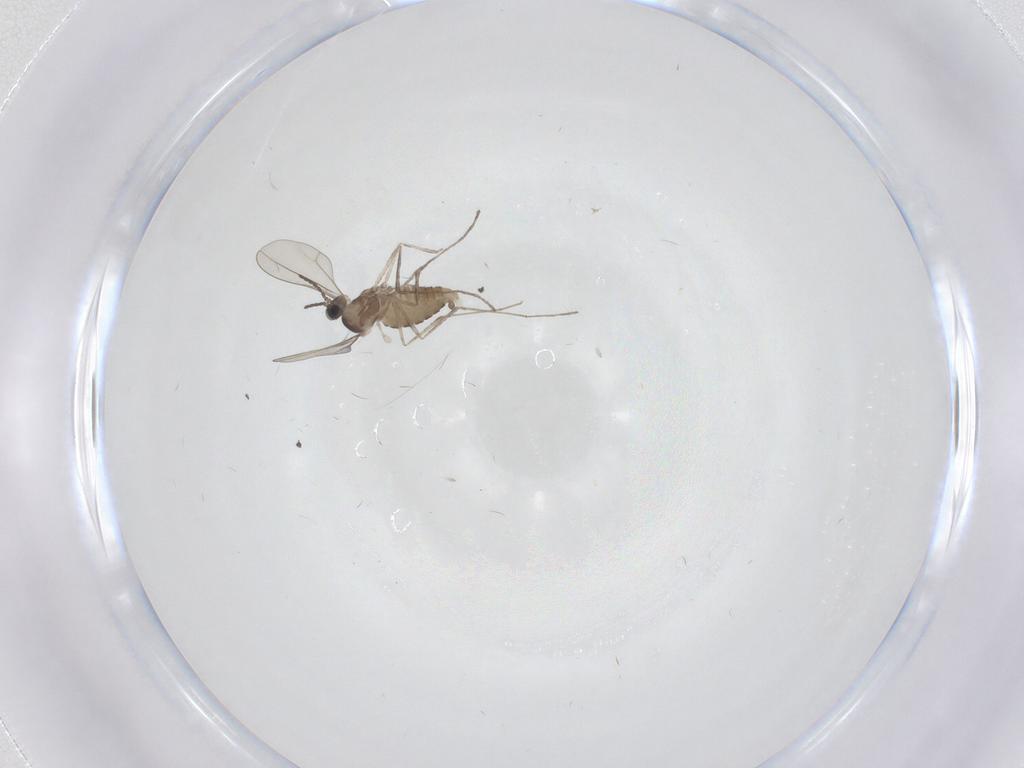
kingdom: Animalia
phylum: Arthropoda
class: Insecta
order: Diptera
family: Cecidomyiidae
